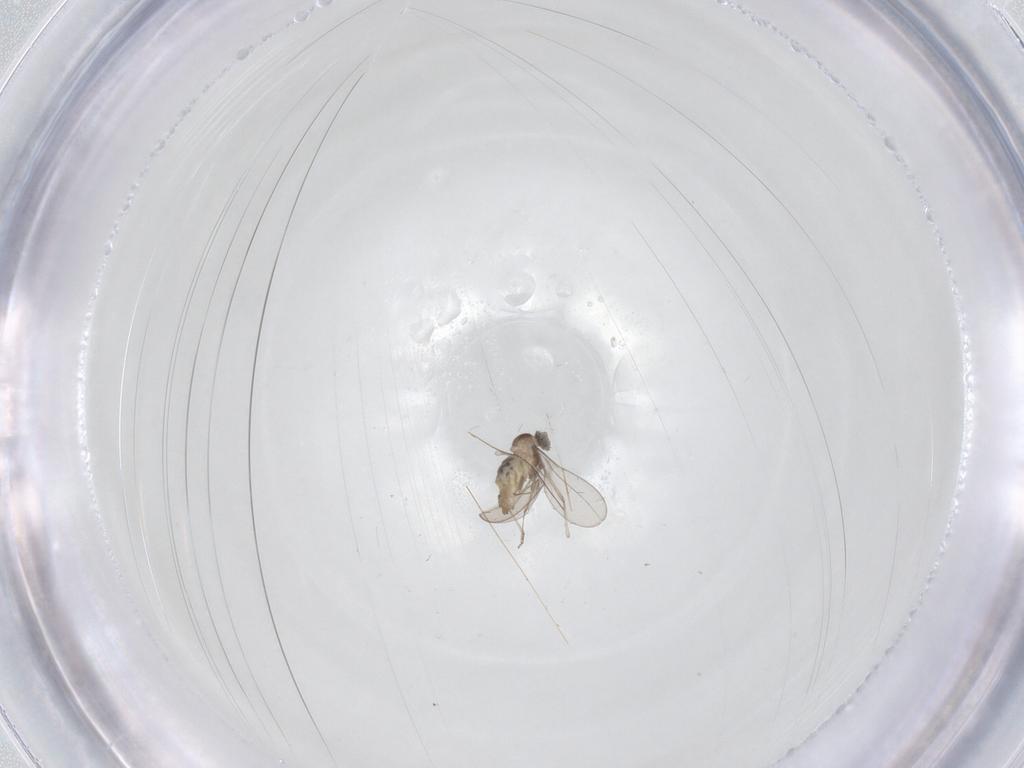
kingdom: Animalia
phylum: Arthropoda
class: Insecta
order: Diptera
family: Cecidomyiidae
